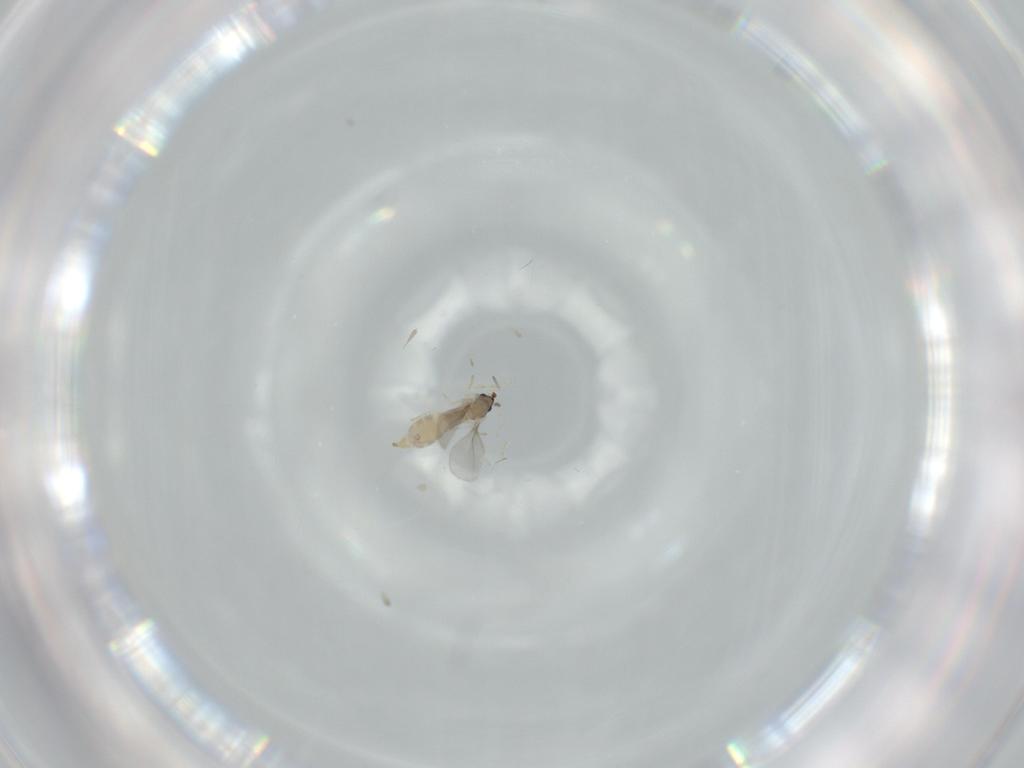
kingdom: Animalia
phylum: Arthropoda
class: Insecta
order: Diptera
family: Cecidomyiidae
